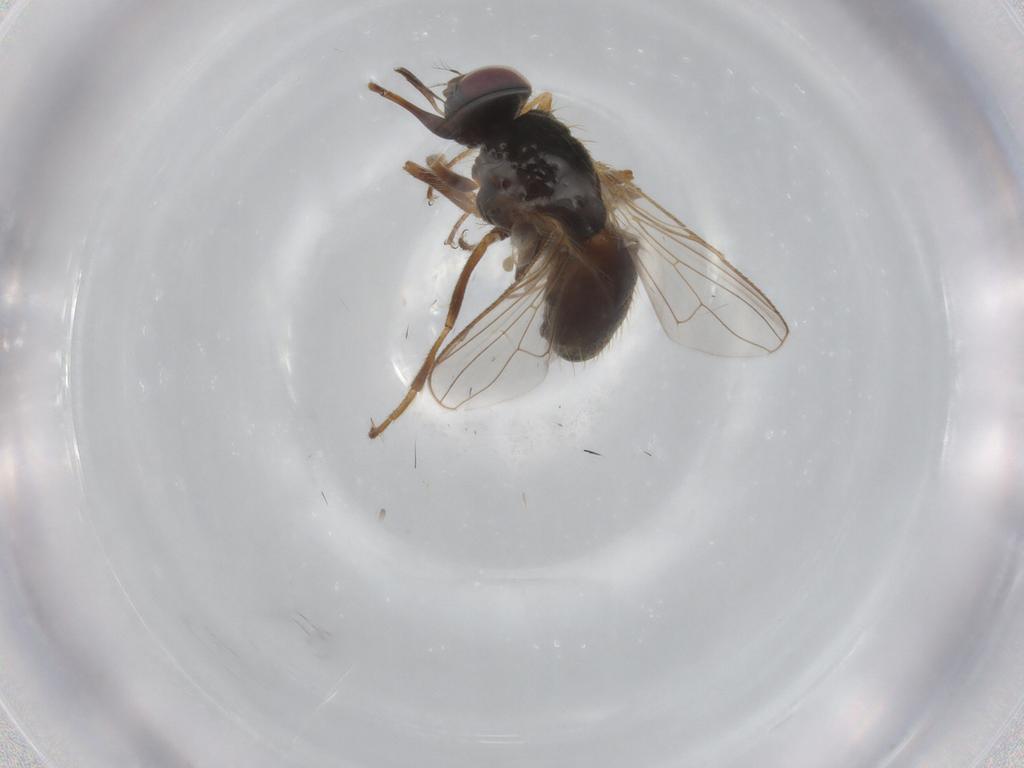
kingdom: Animalia
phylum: Arthropoda
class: Insecta
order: Diptera
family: Muscidae
